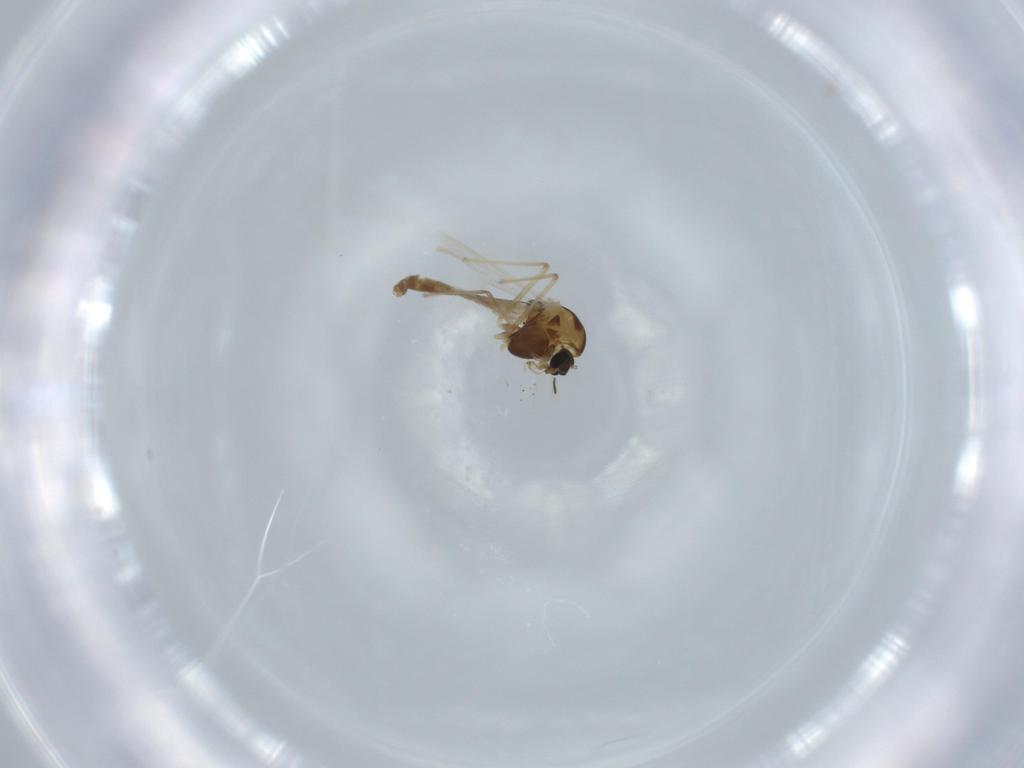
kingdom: Animalia
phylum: Arthropoda
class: Insecta
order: Diptera
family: Chironomidae
